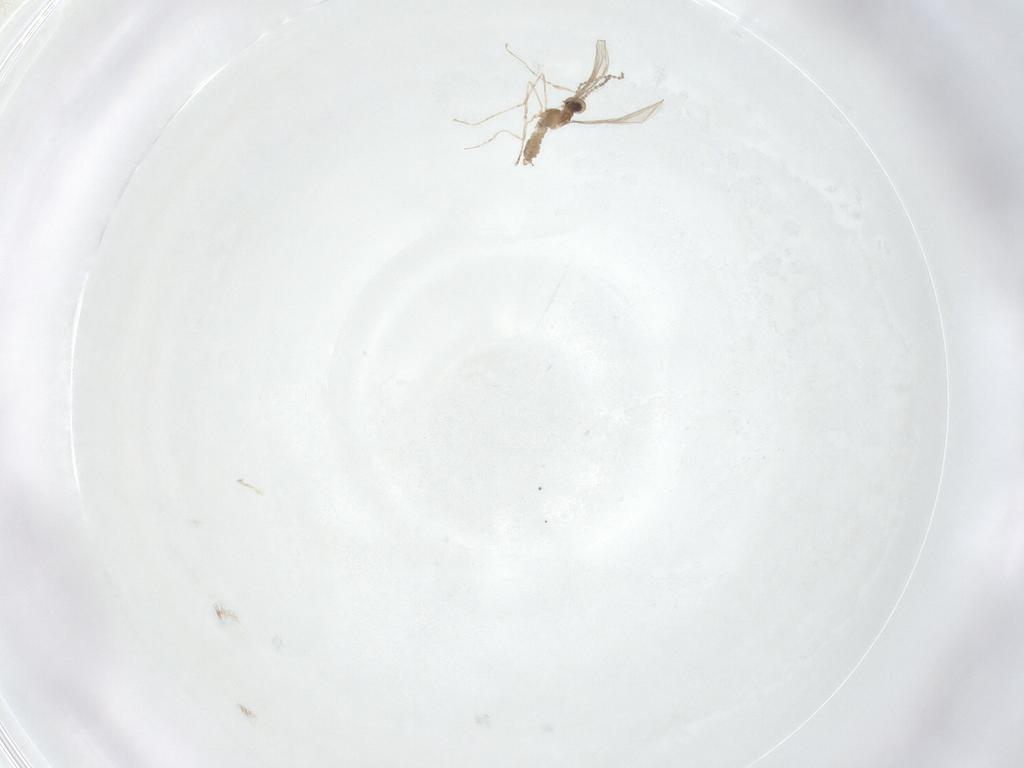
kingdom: Animalia
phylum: Arthropoda
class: Insecta
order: Diptera
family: Cecidomyiidae
